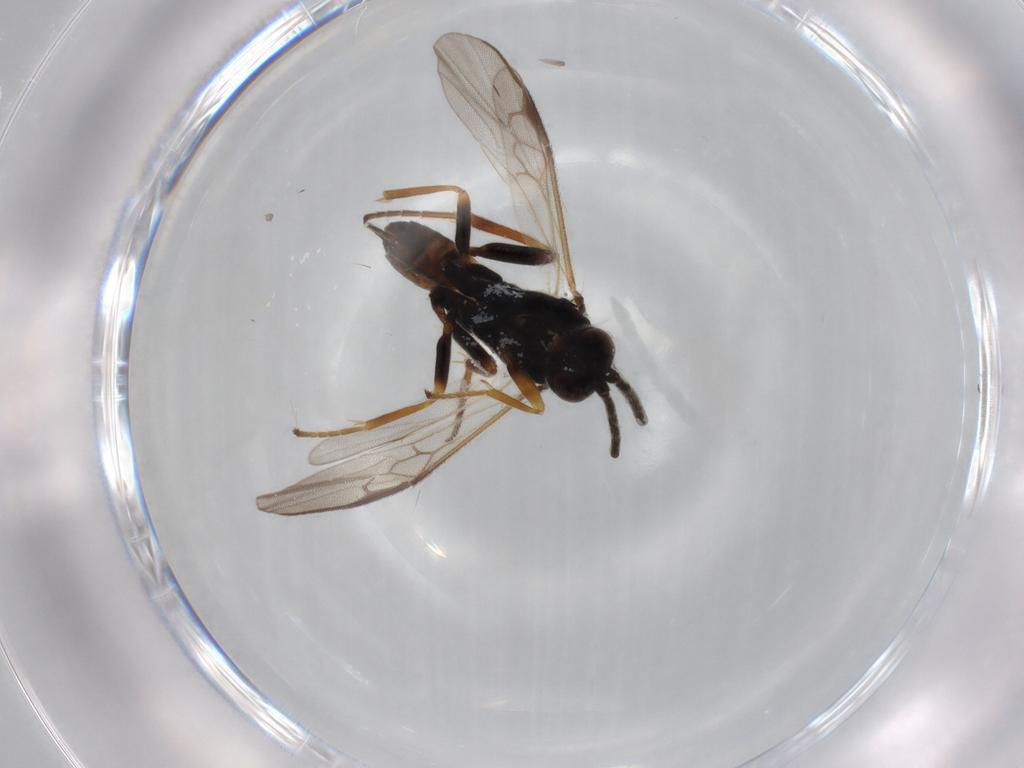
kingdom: Animalia
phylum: Arthropoda
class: Insecta
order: Hymenoptera
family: Braconidae
